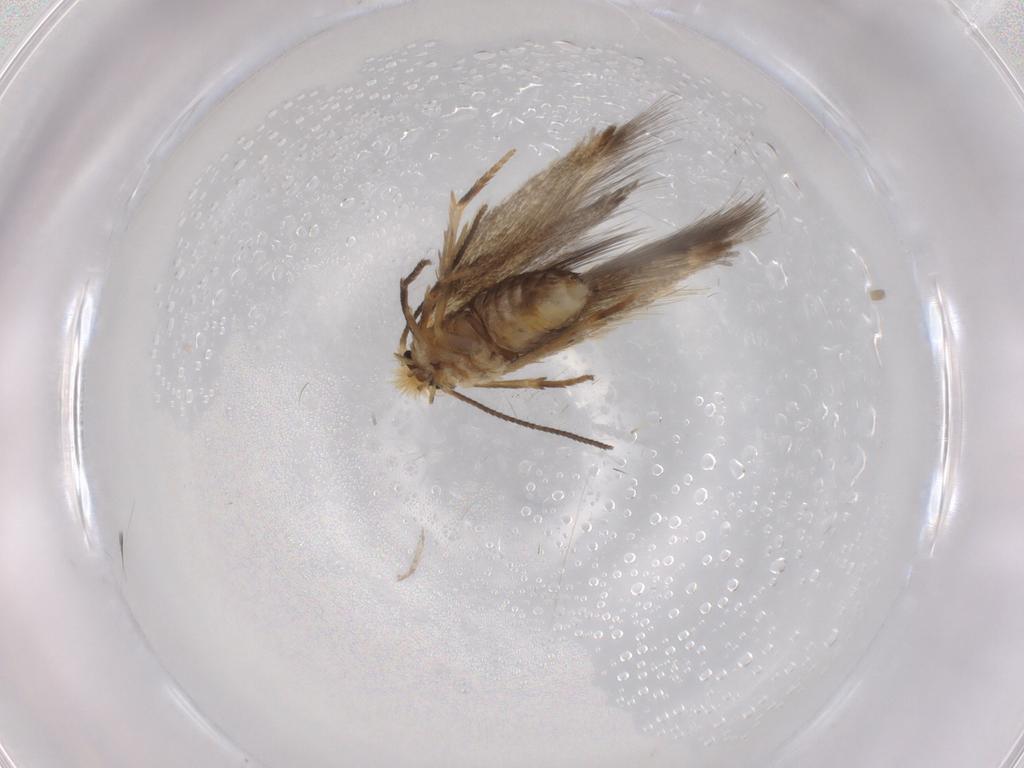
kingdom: Animalia
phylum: Arthropoda
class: Insecta
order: Lepidoptera
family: Nepticulidae
